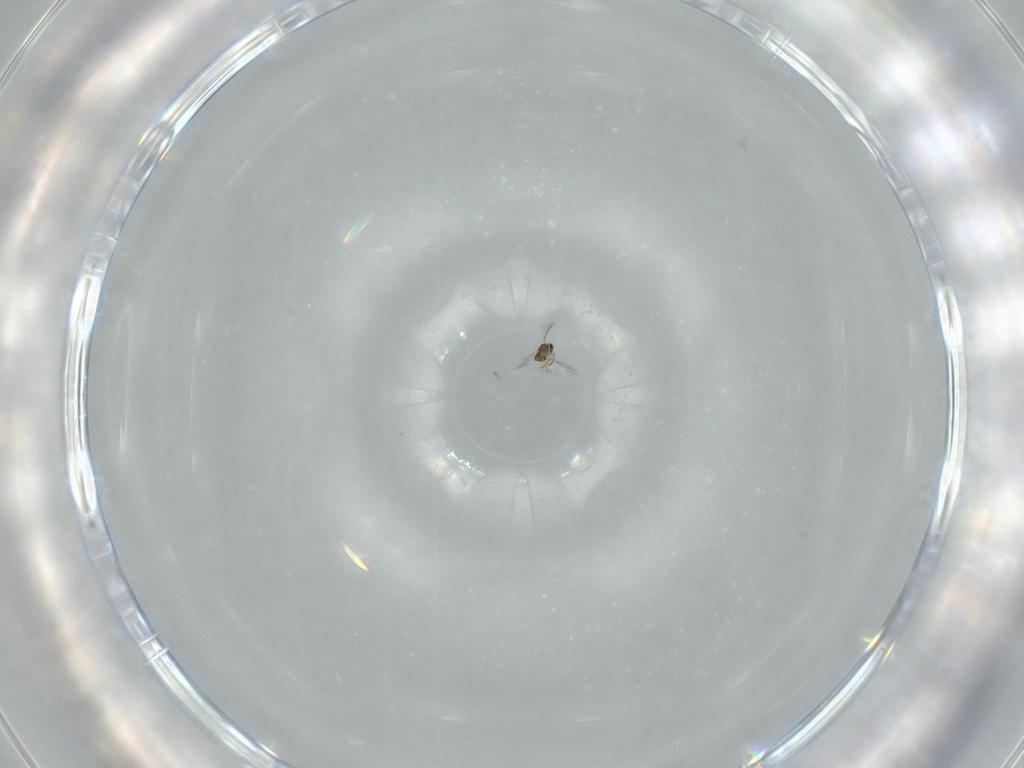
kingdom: Animalia
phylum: Arthropoda
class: Insecta
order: Hymenoptera
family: Mymaridae
